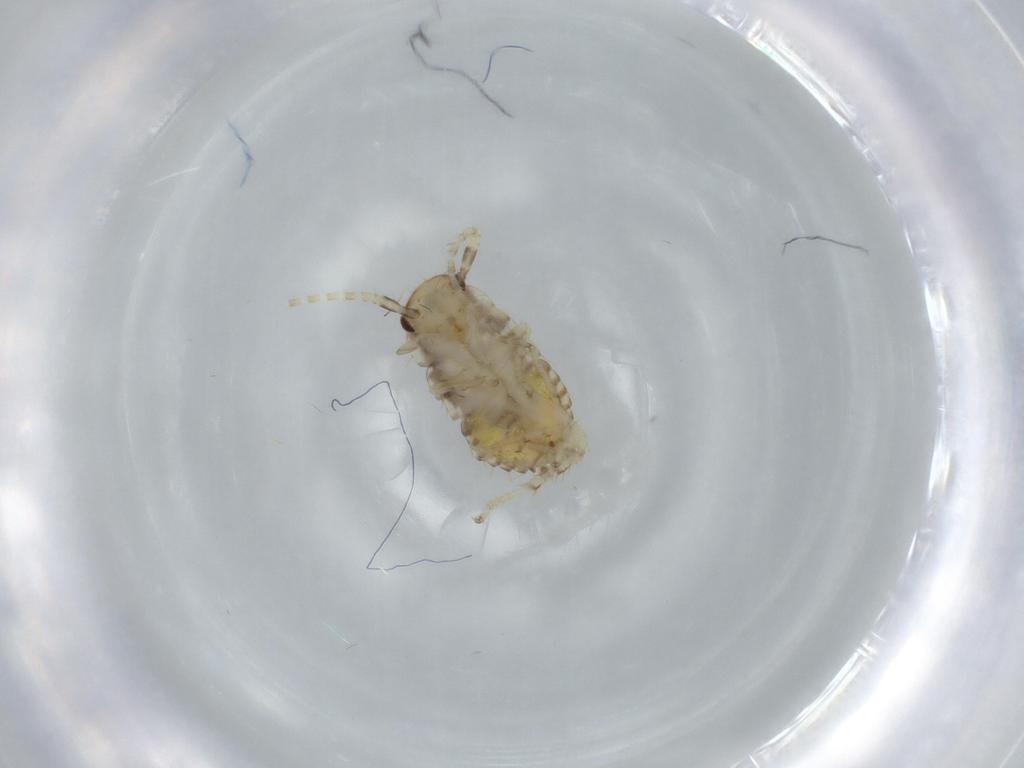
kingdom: Animalia
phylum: Arthropoda
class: Insecta
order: Blattodea
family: Ectobiidae
